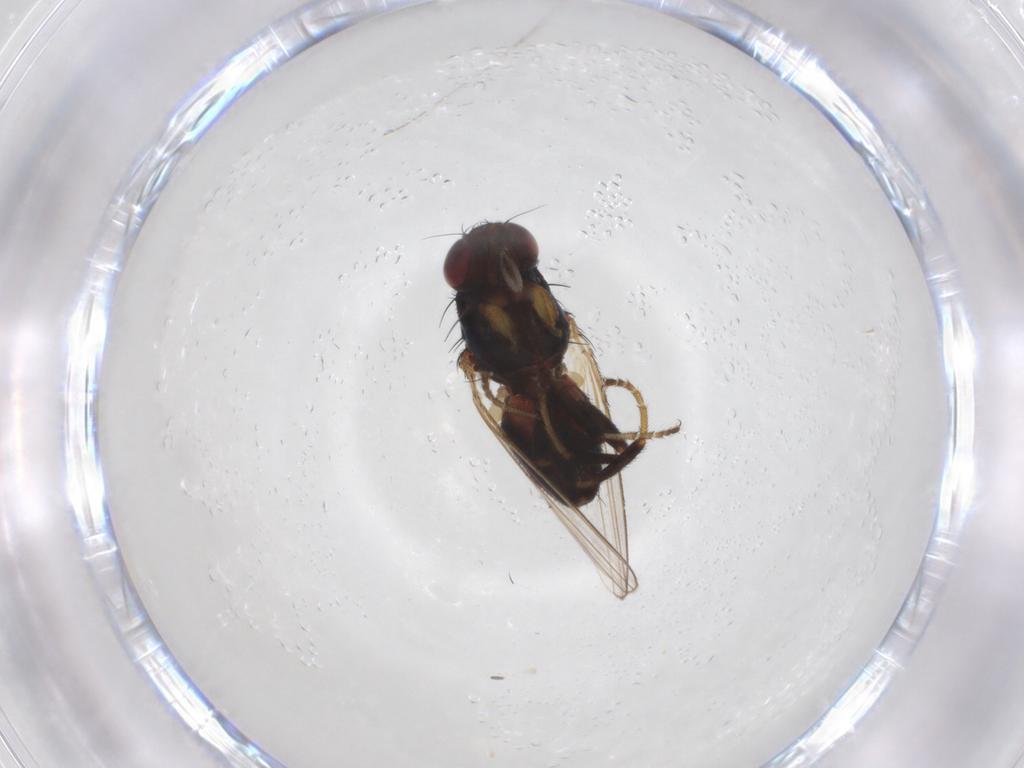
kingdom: Animalia
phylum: Arthropoda
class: Insecta
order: Diptera
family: Milichiidae
